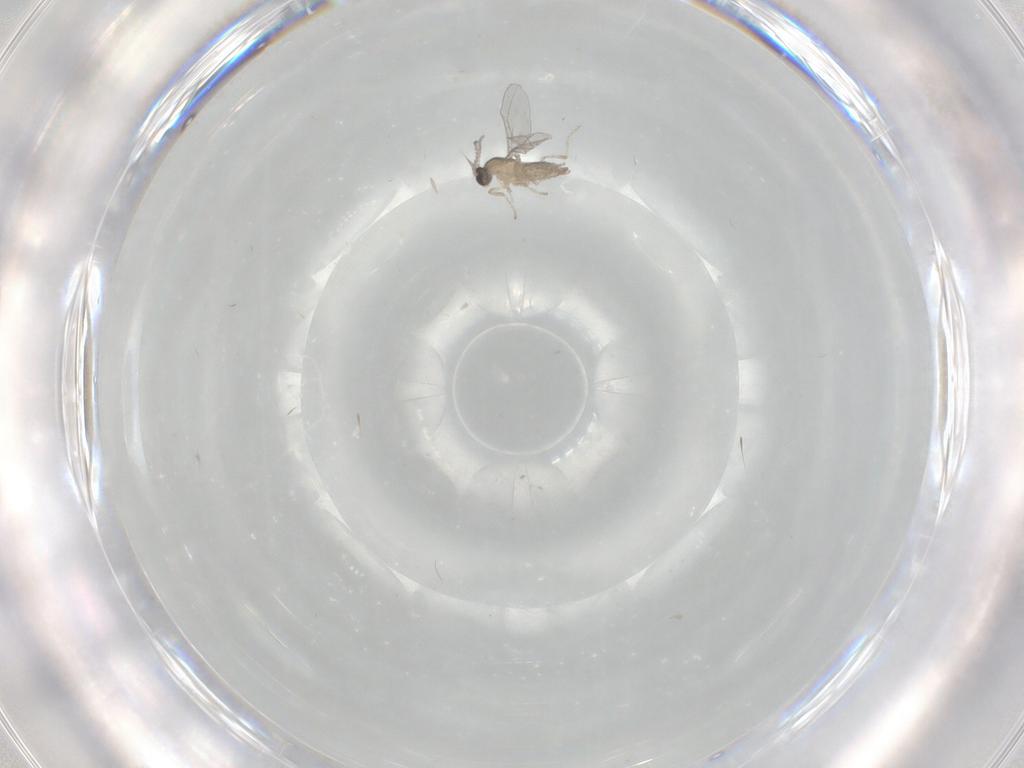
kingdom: Animalia
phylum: Arthropoda
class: Insecta
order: Diptera
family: Cecidomyiidae
